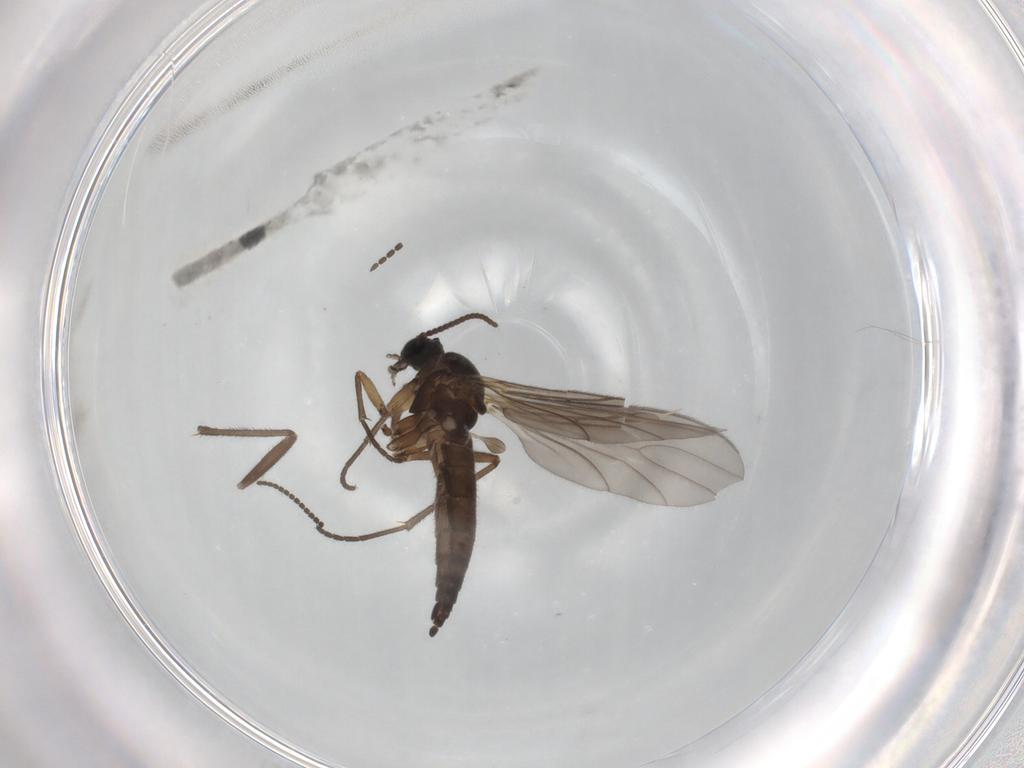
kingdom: Animalia
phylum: Arthropoda
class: Insecta
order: Diptera
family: Sciaridae
